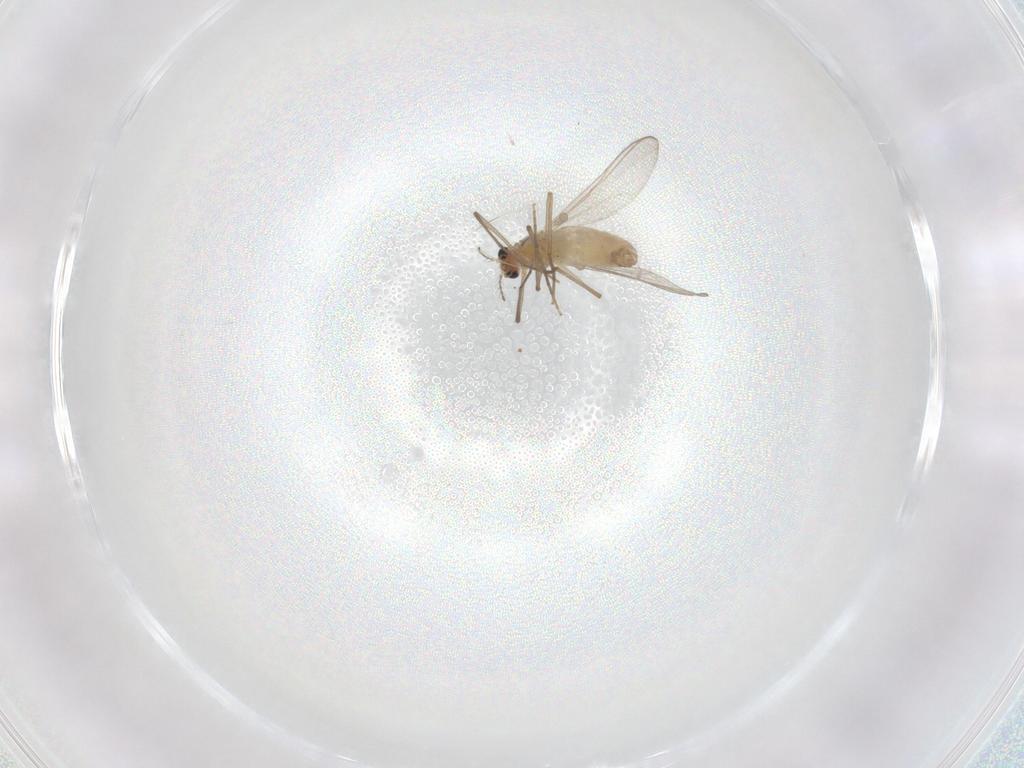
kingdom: Animalia
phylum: Arthropoda
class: Insecta
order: Diptera
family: Chironomidae
